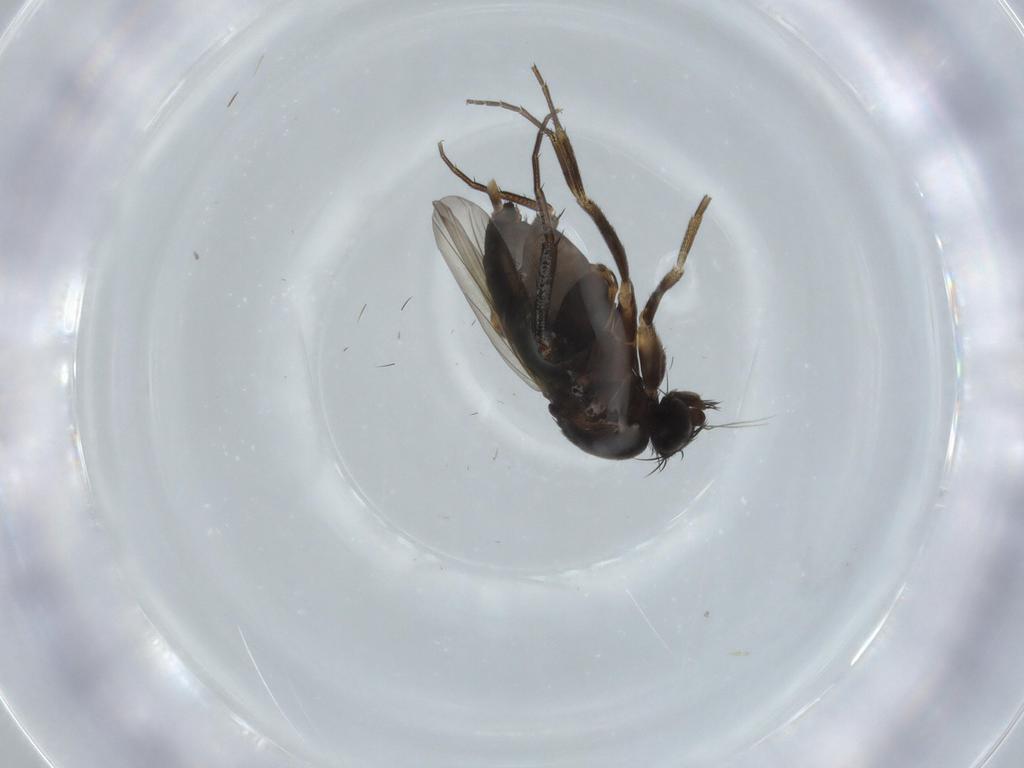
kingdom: Animalia
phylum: Arthropoda
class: Insecta
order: Diptera
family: Phoridae
